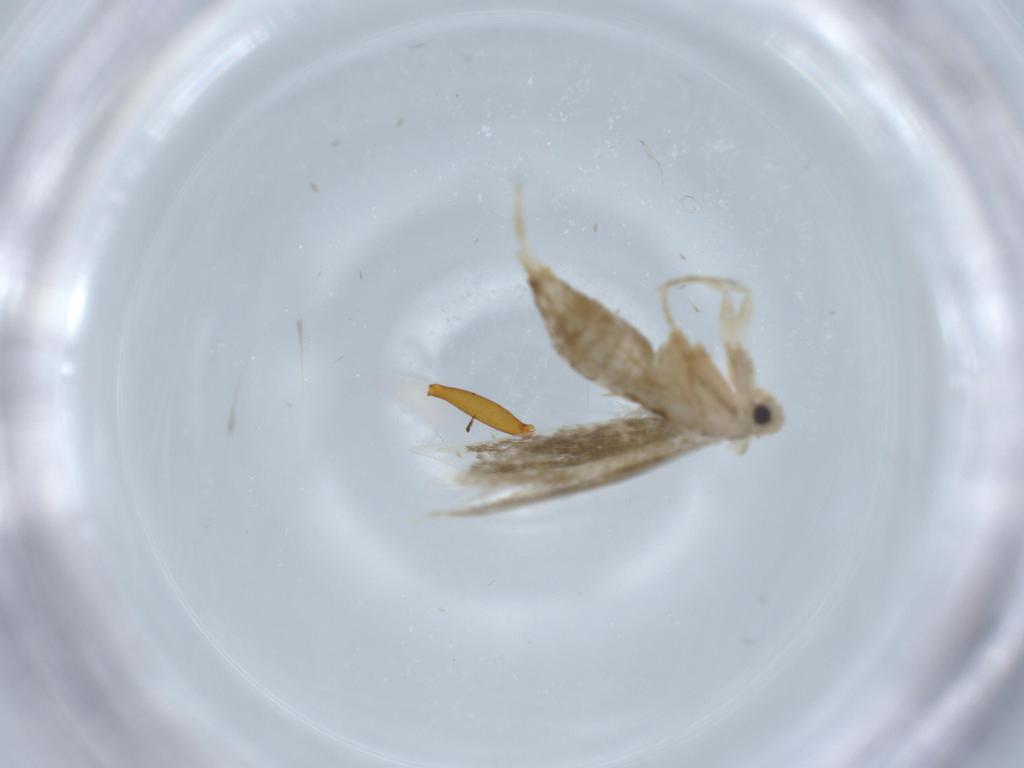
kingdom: Animalia
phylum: Arthropoda
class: Insecta
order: Lepidoptera
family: Tineidae
